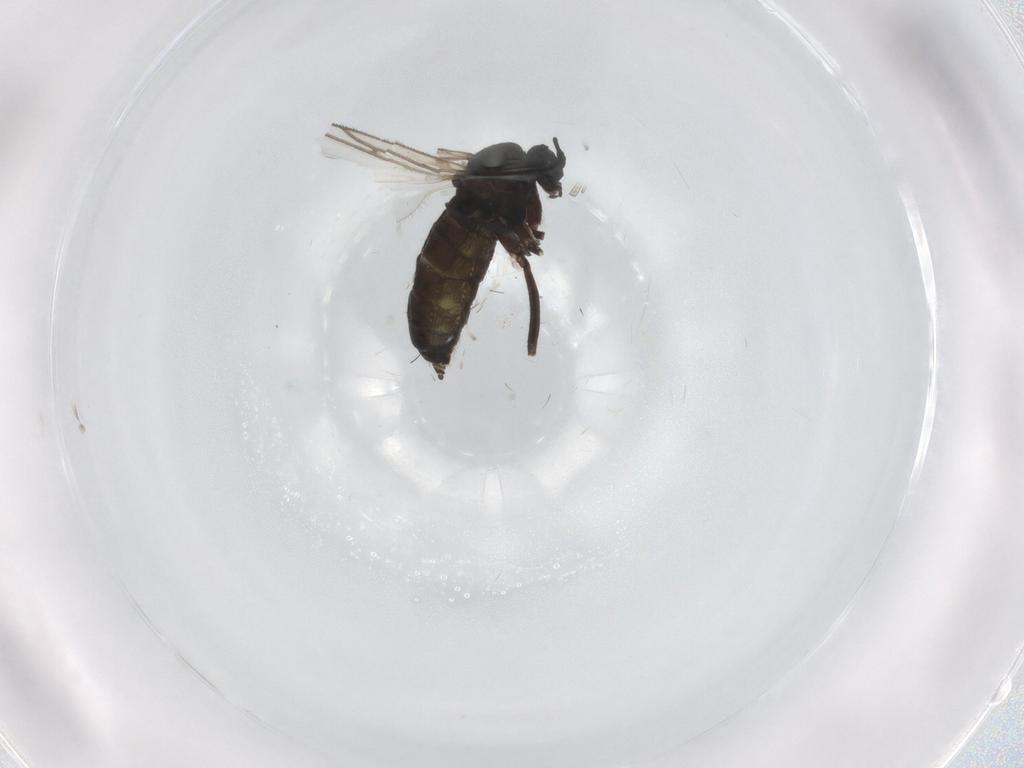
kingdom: Animalia
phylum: Arthropoda
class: Insecta
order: Diptera
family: Sciaridae
